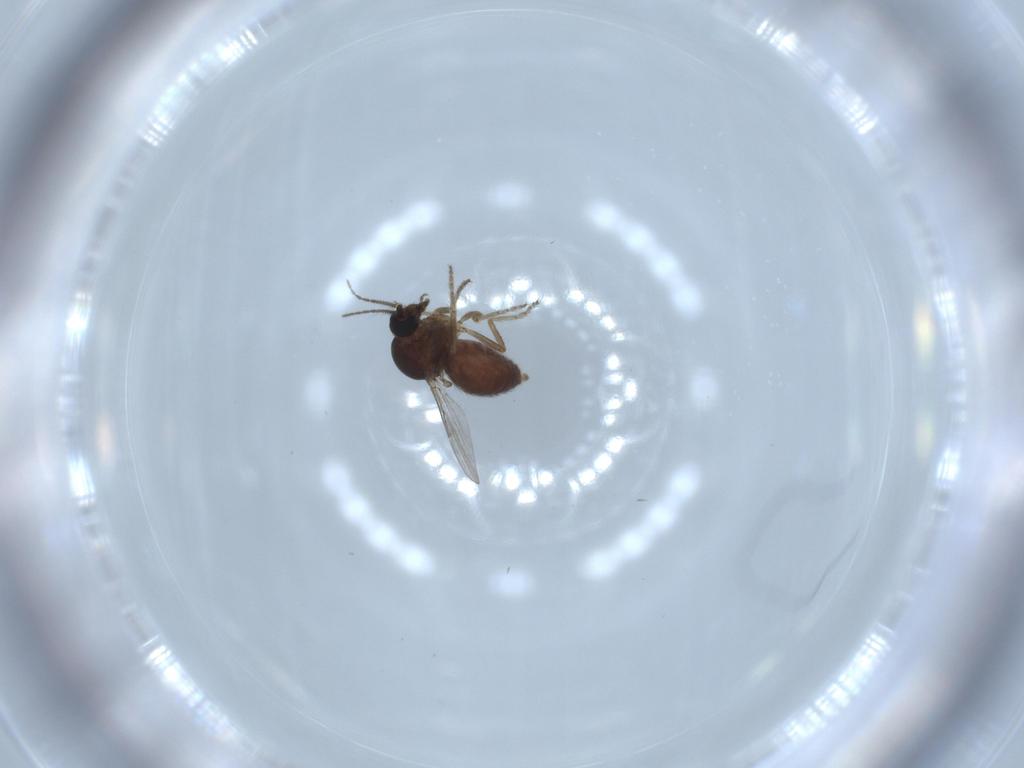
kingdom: Animalia
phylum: Arthropoda
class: Insecta
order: Diptera
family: Ceratopogonidae
